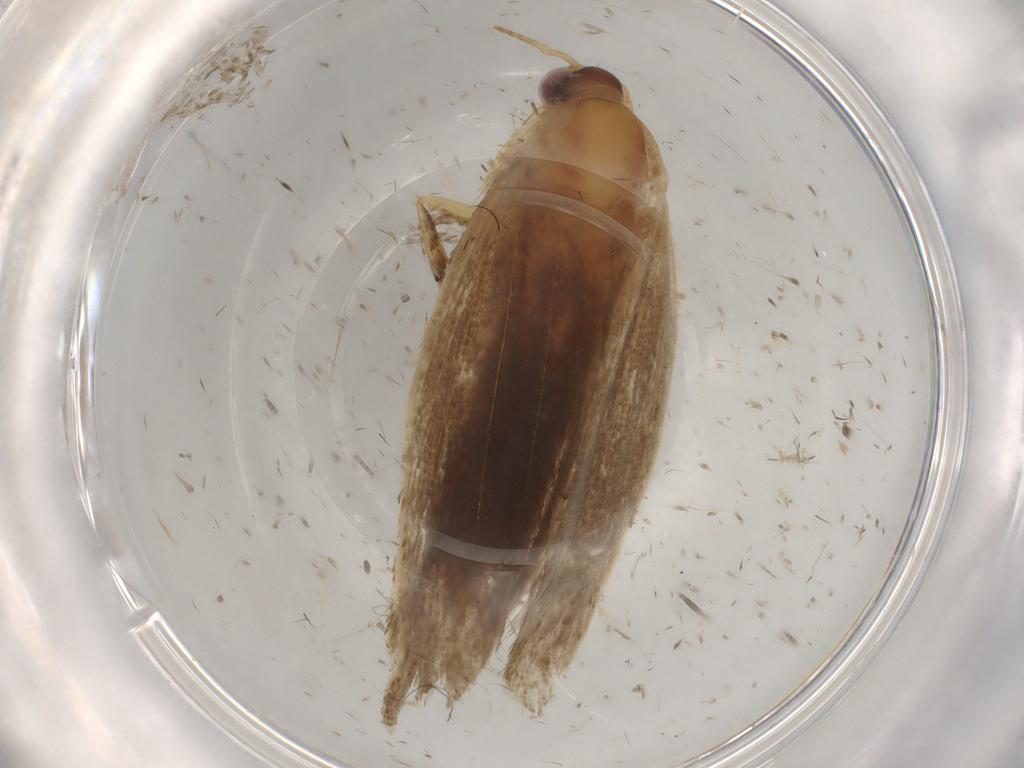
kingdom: Animalia
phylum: Arthropoda
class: Insecta
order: Lepidoptera
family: Gelechiidae
